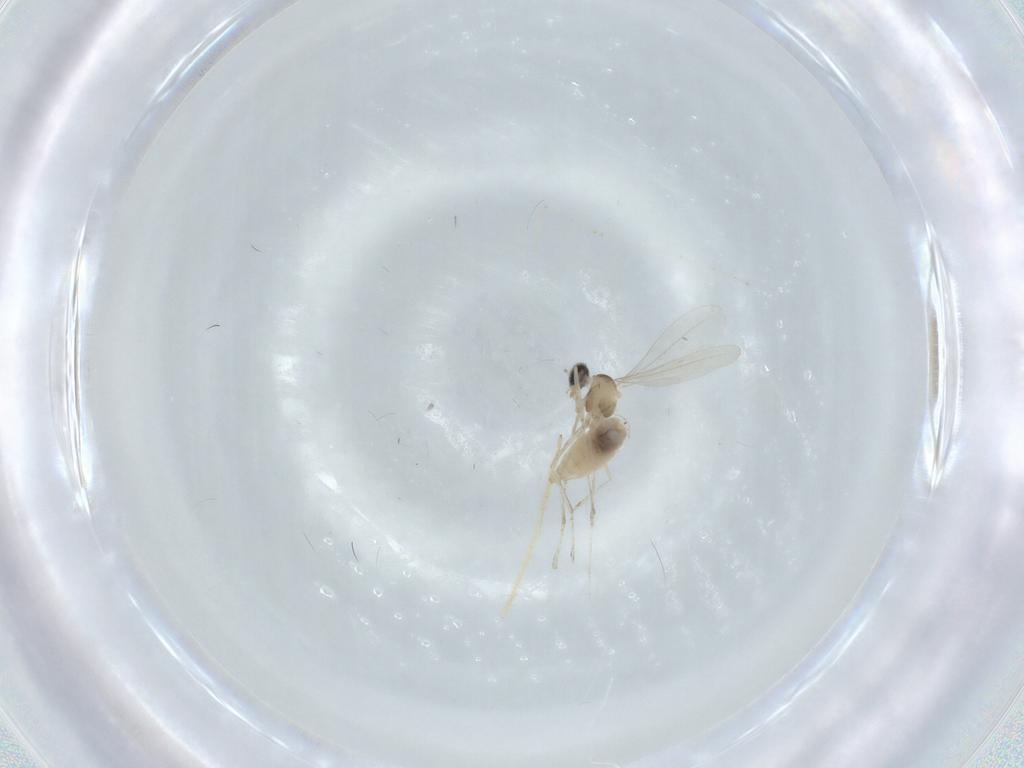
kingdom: Animalia
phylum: Arthropoda
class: Insecta
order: Diptera
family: Cecidomyiidae
